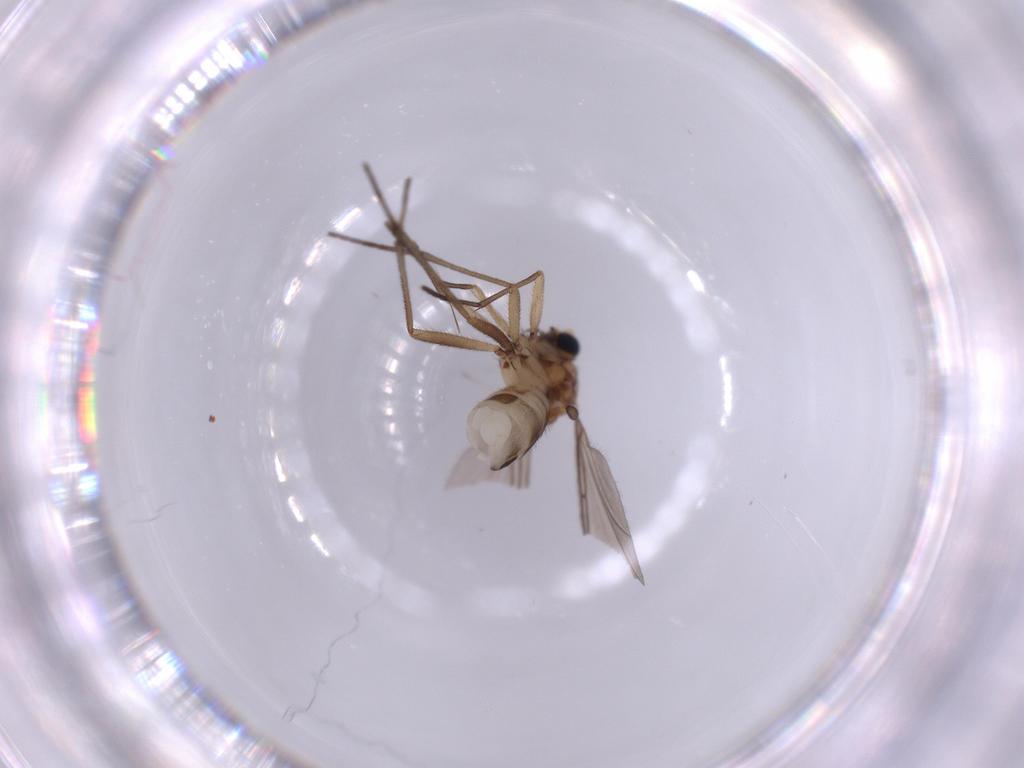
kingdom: Animalia
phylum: Arthropoda
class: Insecta
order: Diptera
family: Sciaridae
